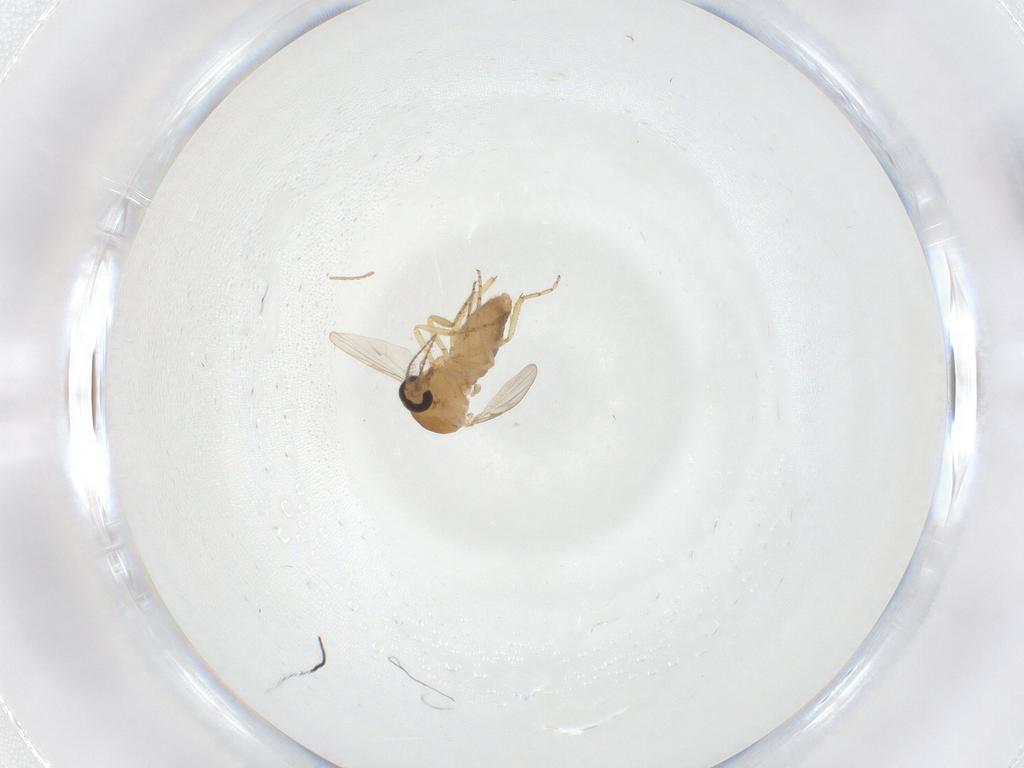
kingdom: Animalia
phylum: Arthropoda
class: Insecta
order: Diptera
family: Ceratopogonidae
